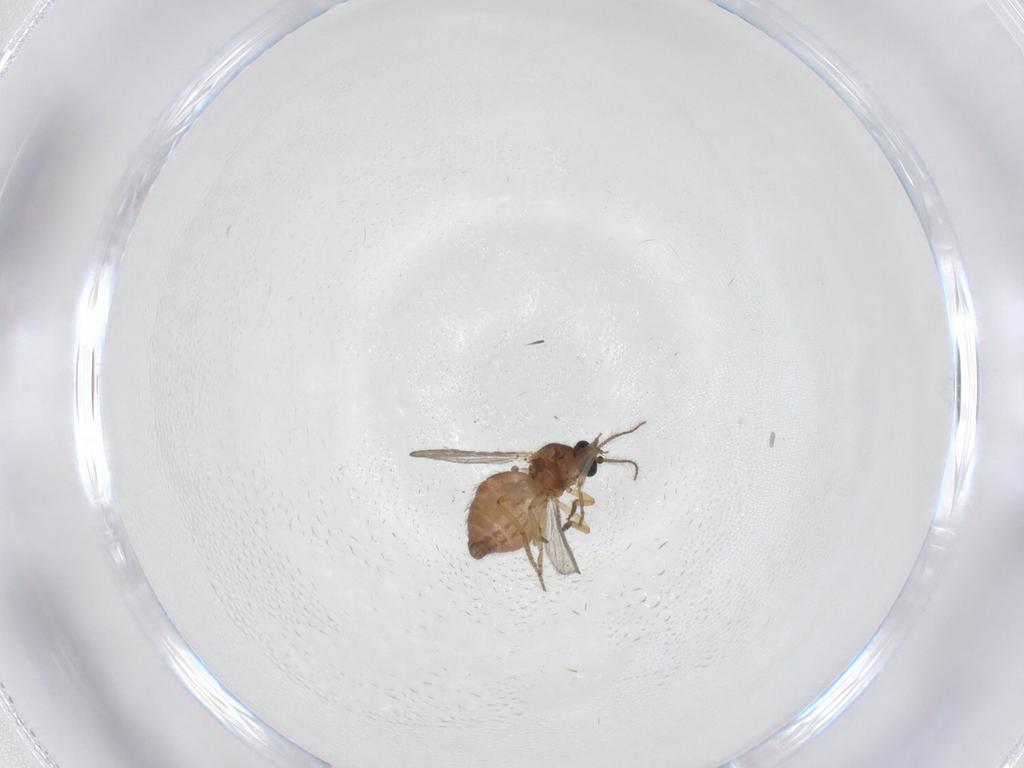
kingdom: Animalia
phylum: Arthropoda
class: Insecta
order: Diptera
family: Ceratopogonidae
